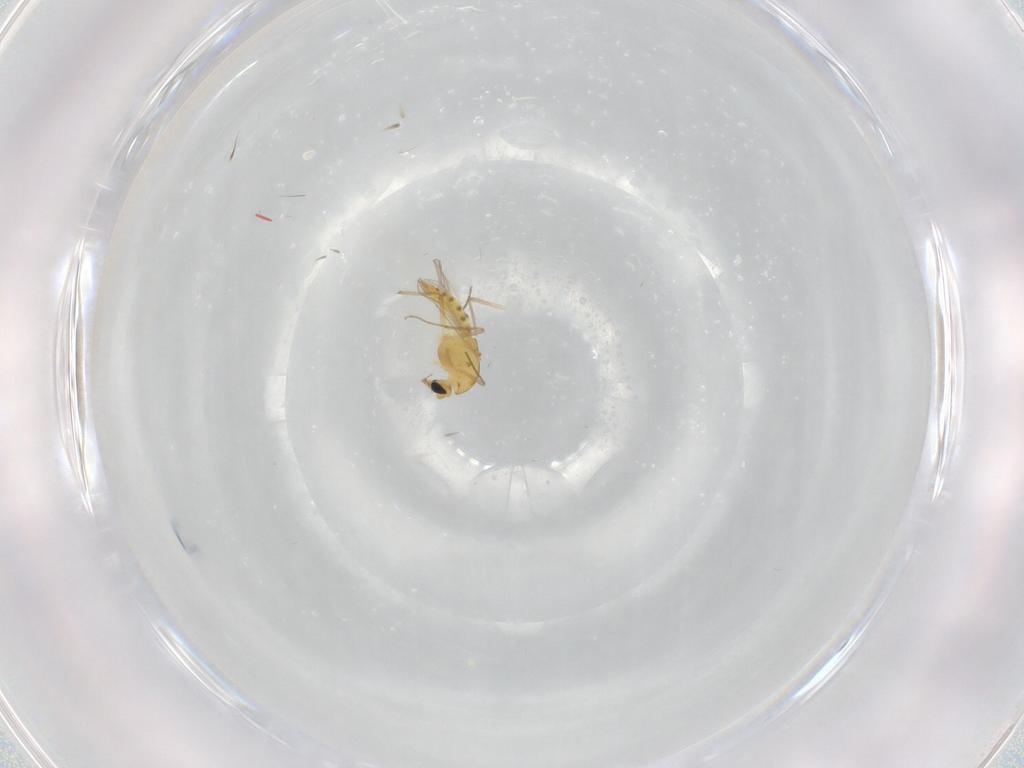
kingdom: Animalia
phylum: Arthropoda
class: Insecta
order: Diptera
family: Chironomidae
